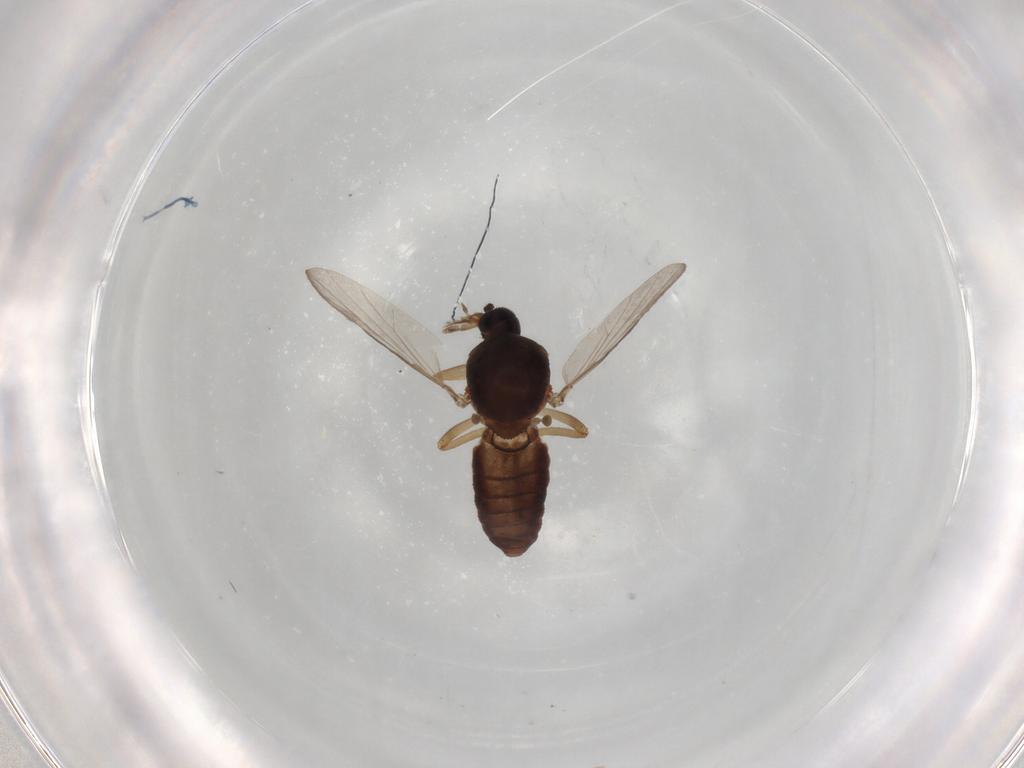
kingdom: Animalia
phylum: Arthropoda
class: Insecta
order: Diptera
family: Ceratopogonidae
